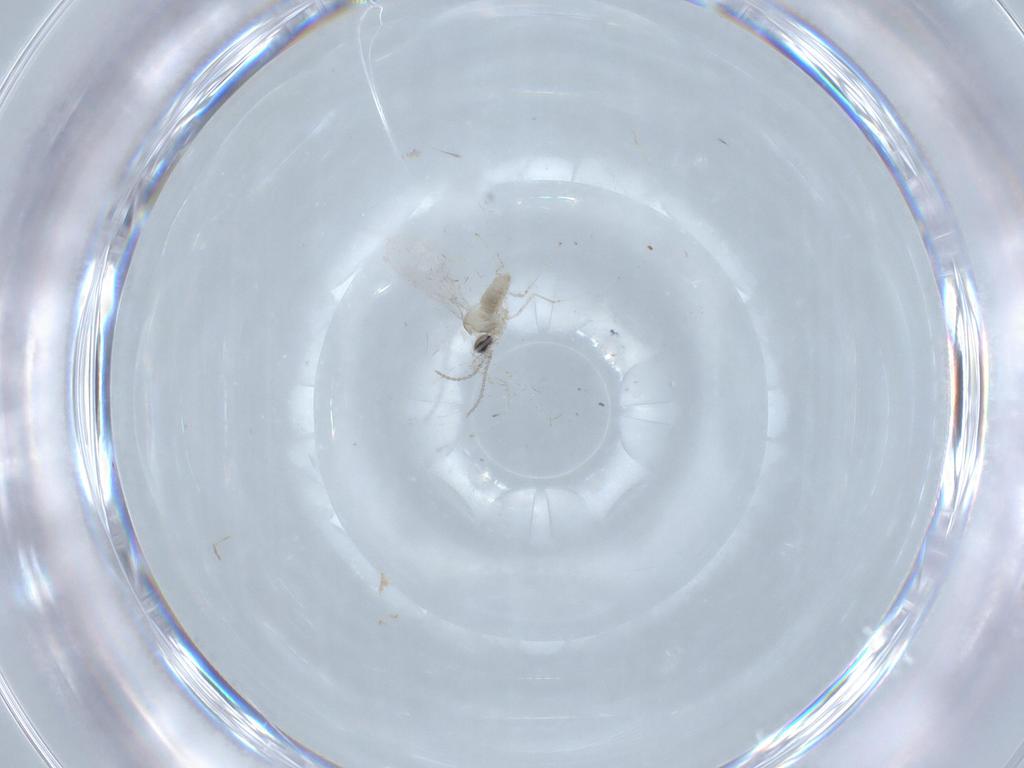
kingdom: Animalia
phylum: Arthropoda
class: Insecta
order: Diptera
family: Cecidomyiidae
